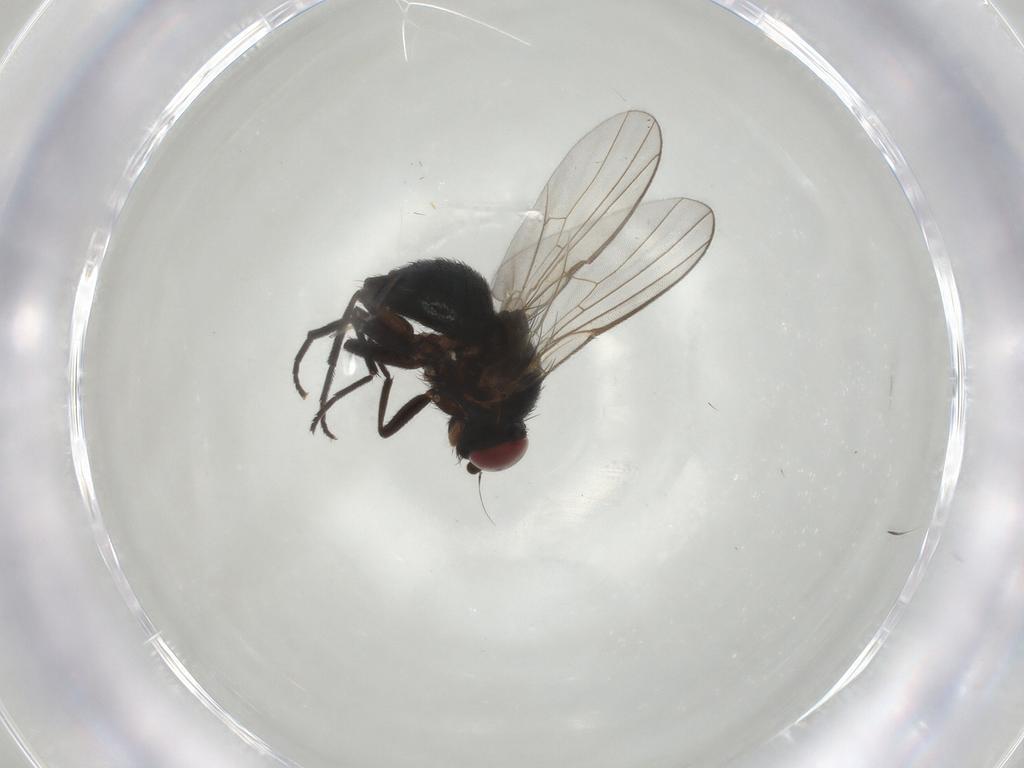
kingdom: Animalia
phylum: Arthropoda
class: Insecta
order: Diptera
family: Agromyzidae
